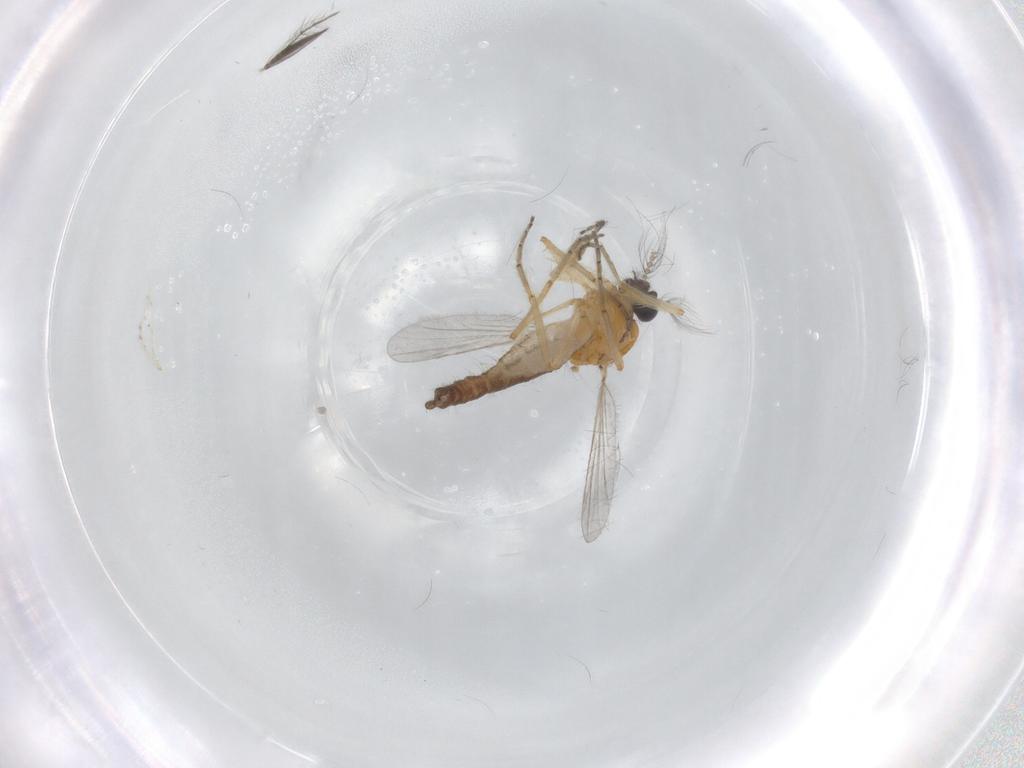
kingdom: Animalia
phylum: Arthropoda
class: Insecta
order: Diptera
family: Ceratopogonidae
